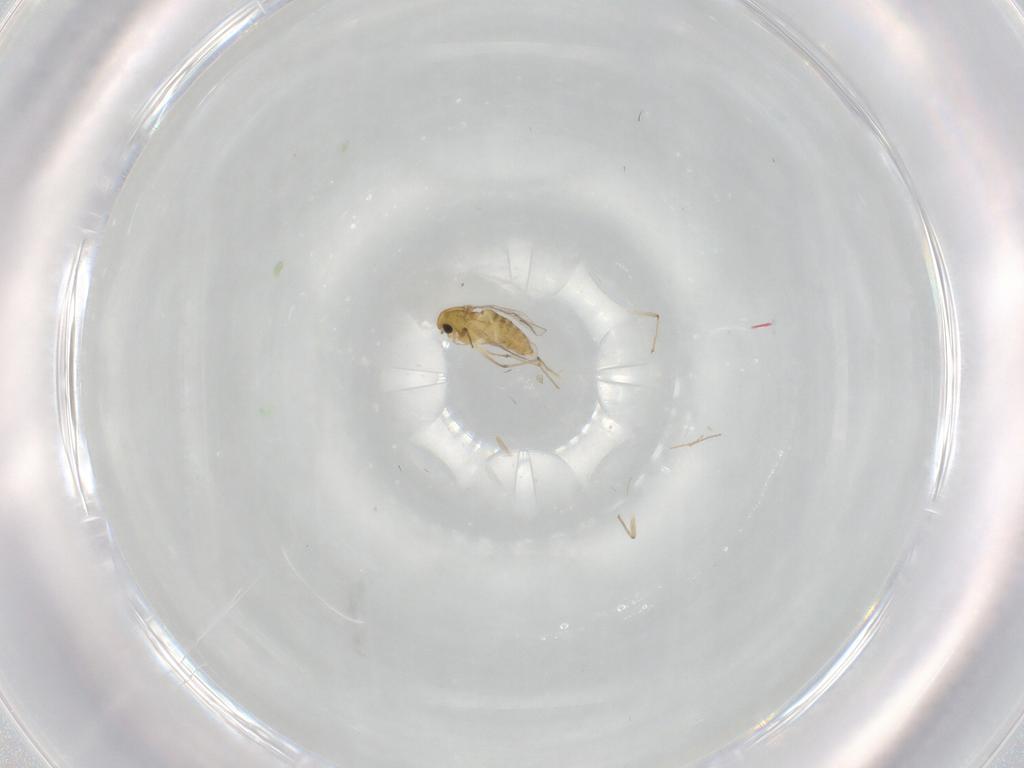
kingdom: Animalia
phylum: Arthropoda
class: Insecta
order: Diptera
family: Chironomidae
